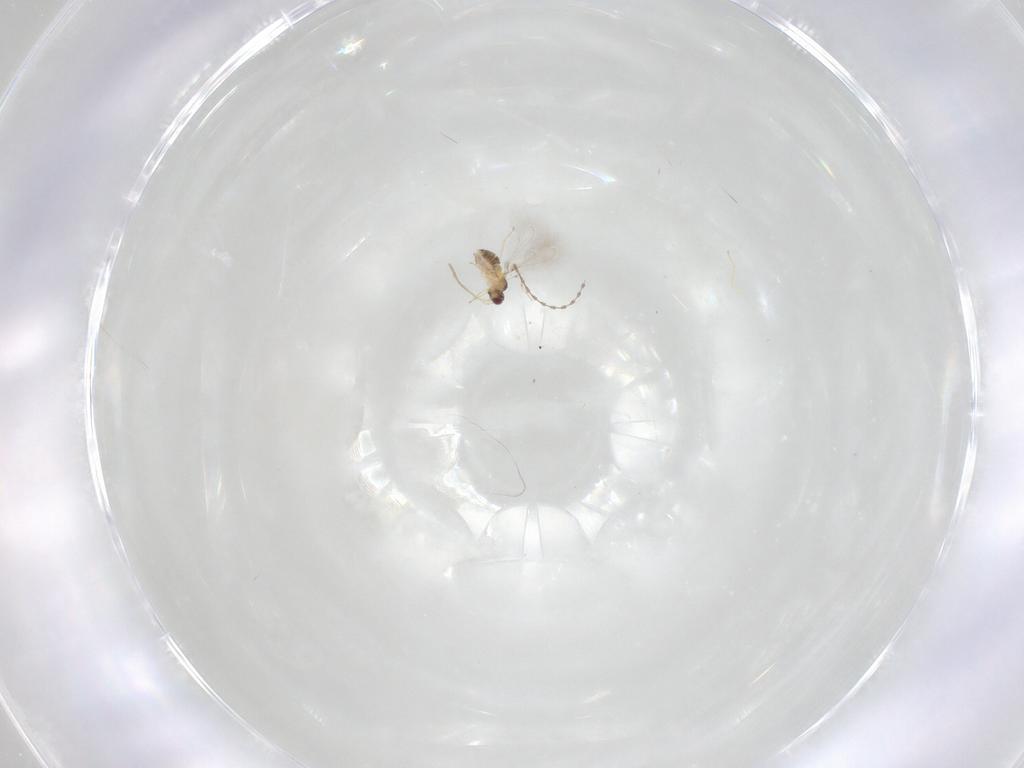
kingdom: Animalia
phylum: Arthropoda
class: Insecta
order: Hymenoptera
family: Mymaridae
